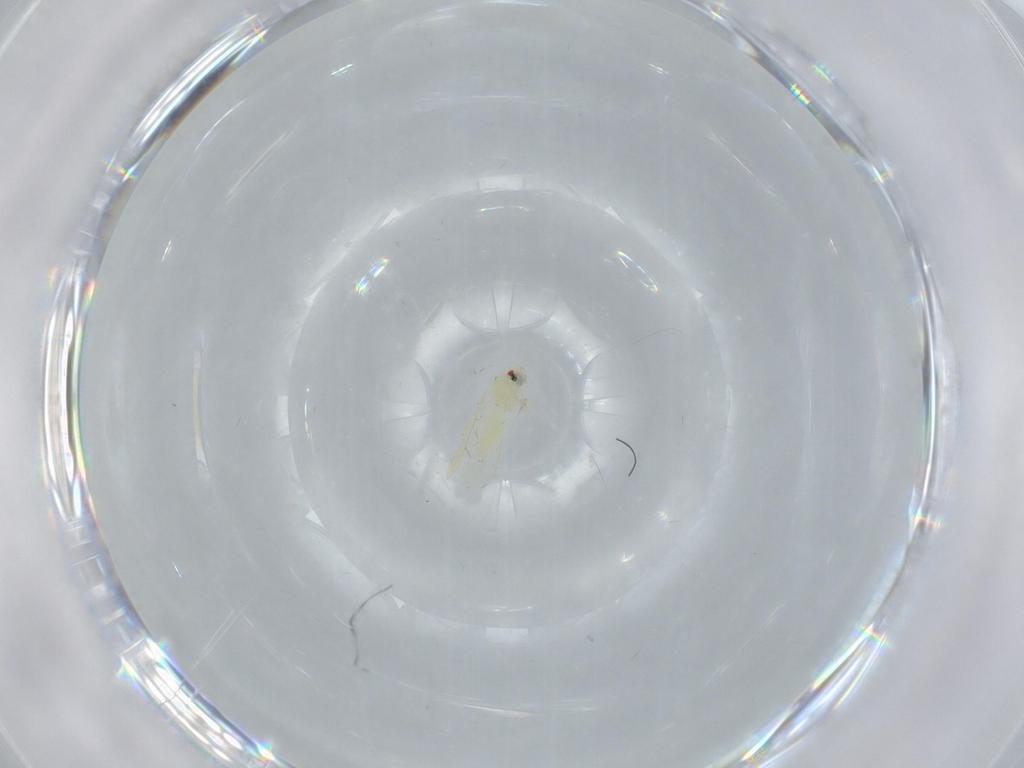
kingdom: Animalia
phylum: Arthropoda
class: Insecta
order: Hemiptera
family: Aleyrodidae
